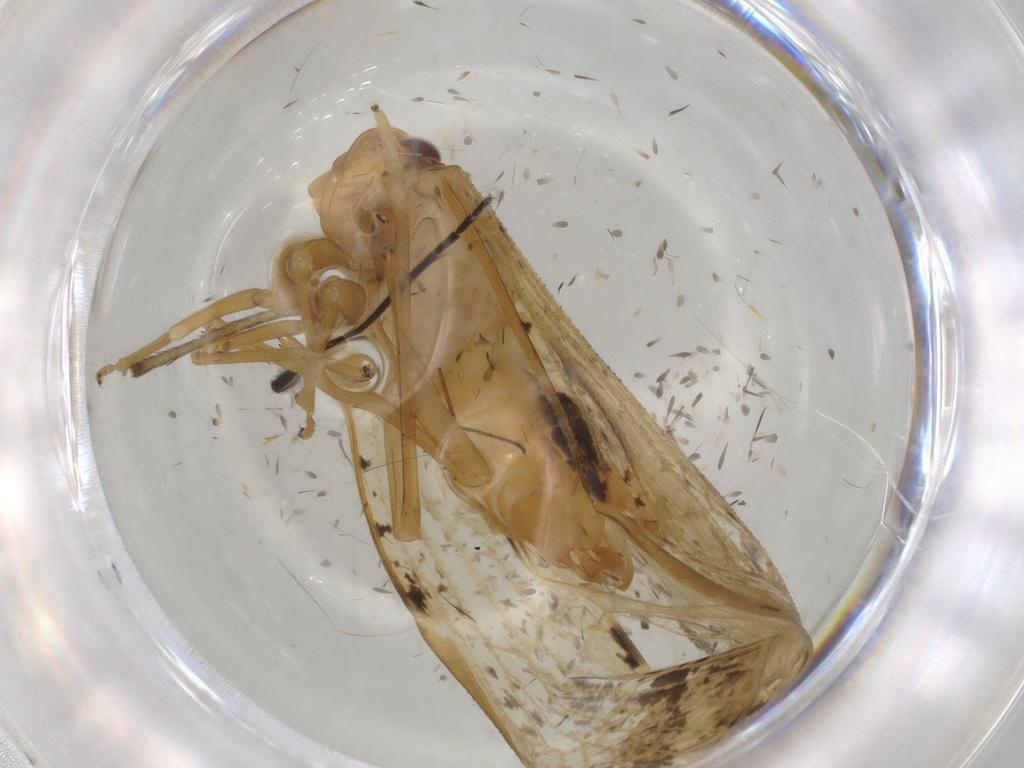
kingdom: Animalia
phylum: Arthropoda
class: Insecta
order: Hemiptera
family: Cixiidae
